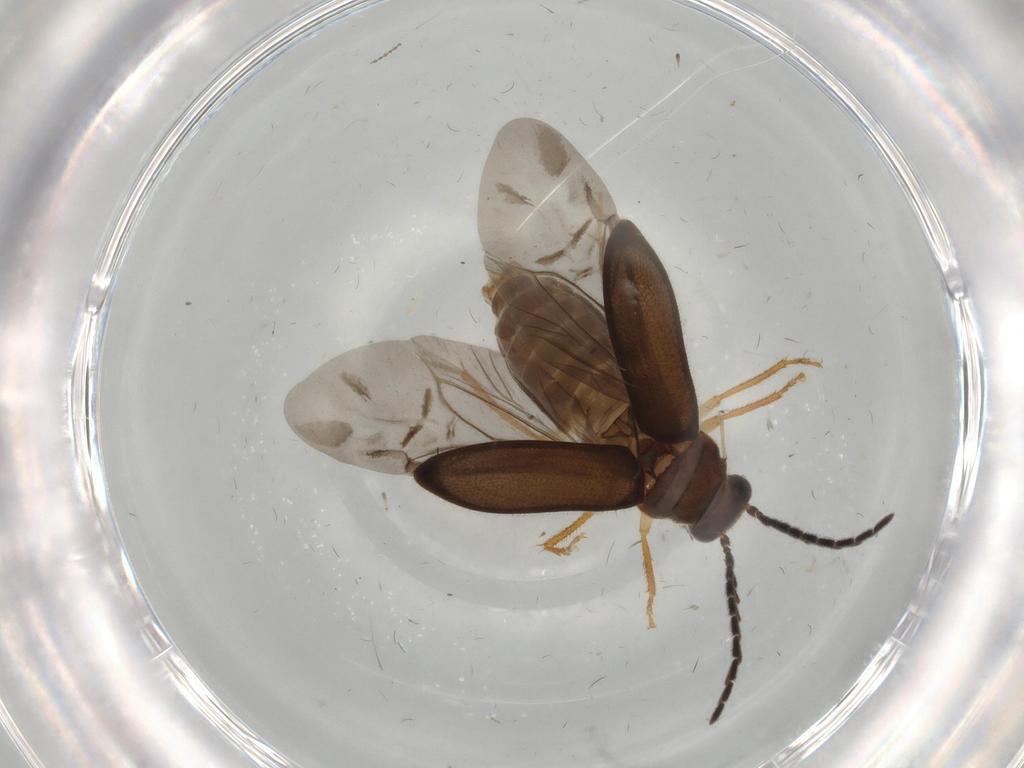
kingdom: Animalia
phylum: Arthropoda
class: Insecta
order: Coleoptera
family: Ptilodactylidae
